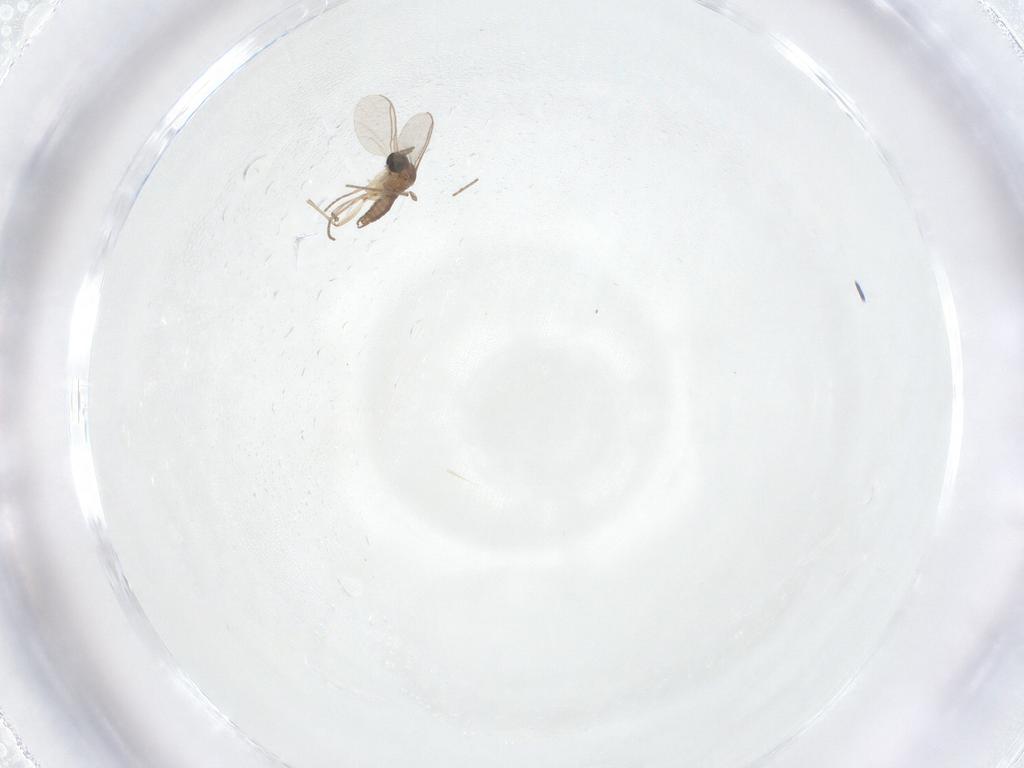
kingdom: Animalia
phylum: Arthropoda
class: Insecta
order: Diptera
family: Sciaridae
